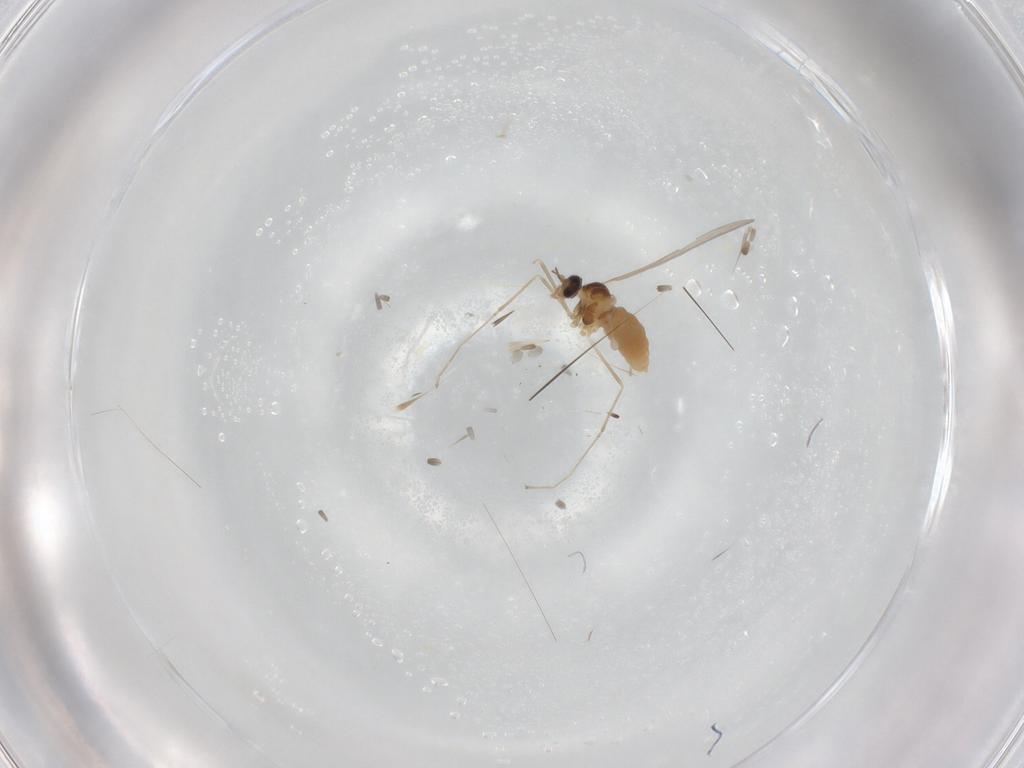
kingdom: Animalia
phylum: Arthropoda
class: Insecta
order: Diptera
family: Cecidomyiidae
